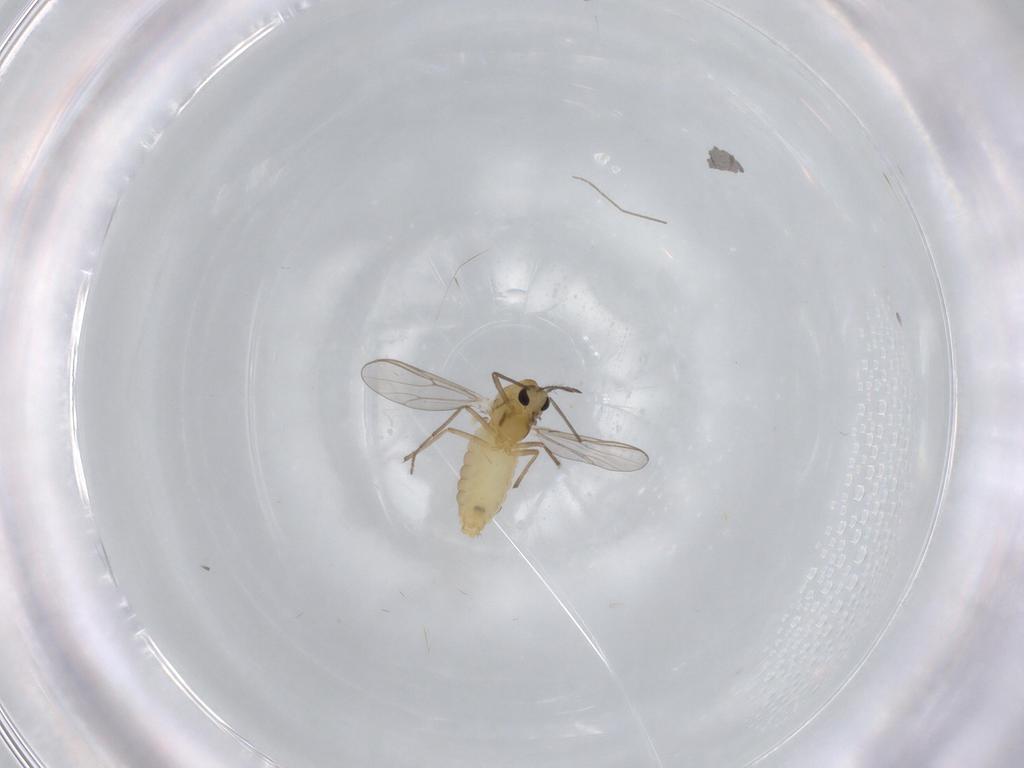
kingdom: Animalia
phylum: Arthropoda
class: Insecta
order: Diptera
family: Chironomidae
